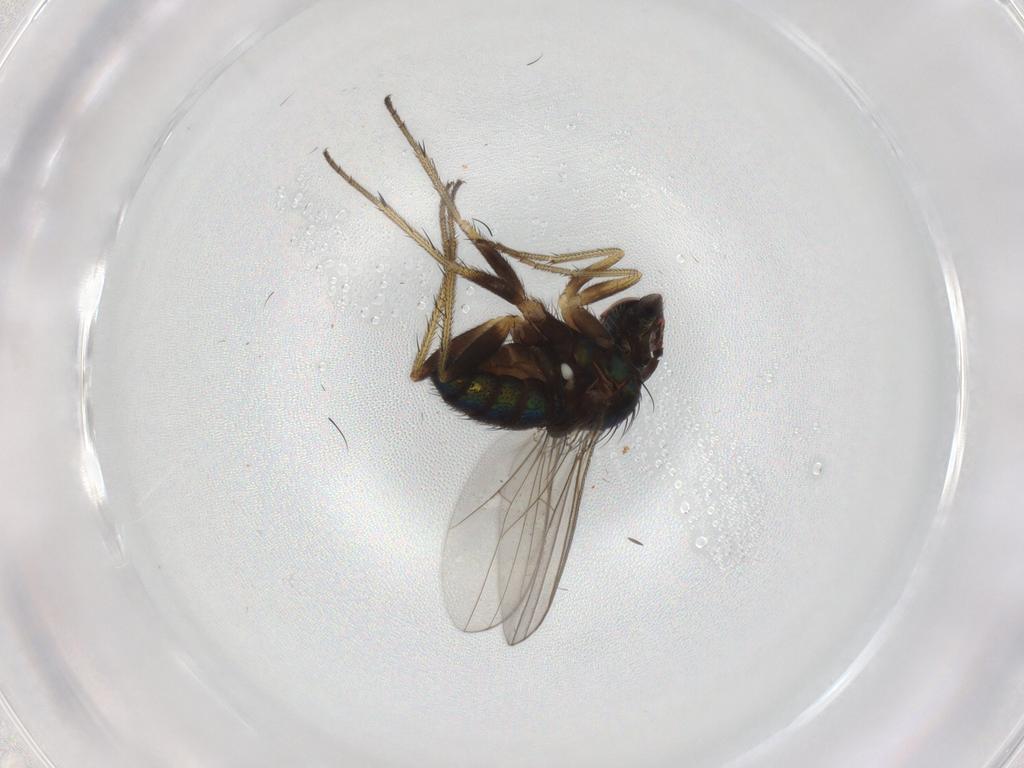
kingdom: Animalia
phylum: Arthropoda
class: Insecta
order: Diptera
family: Dolichopodidae
